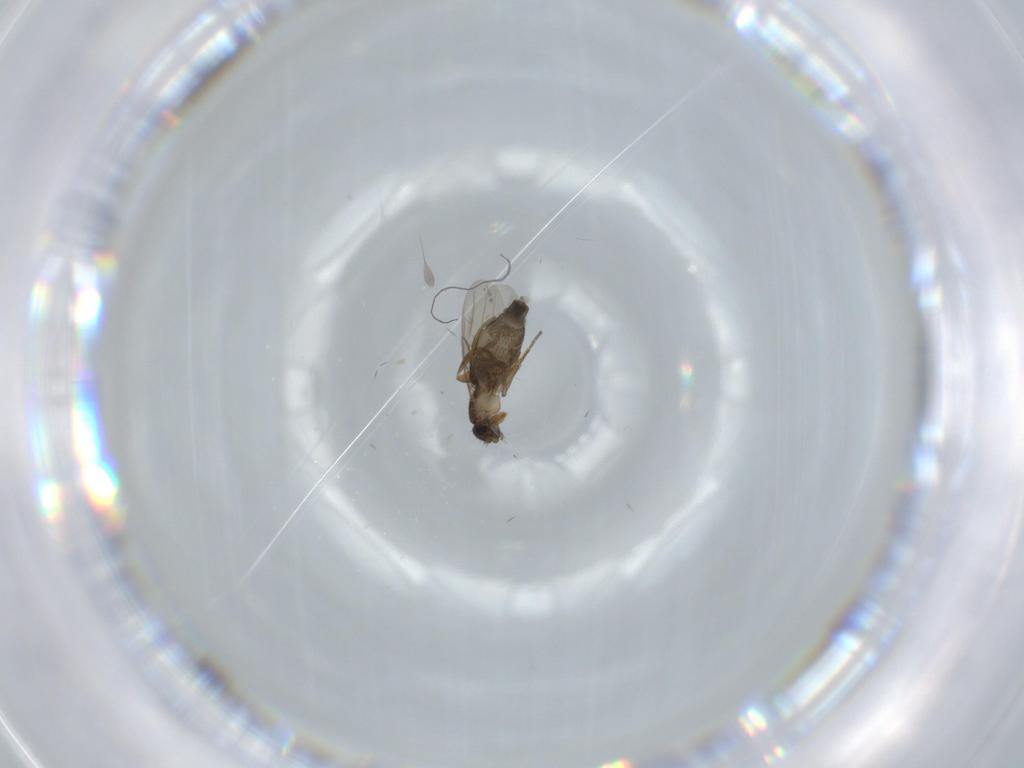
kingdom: Animalia
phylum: Arthropoda
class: Insecta
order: Diptera
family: Phoridae
